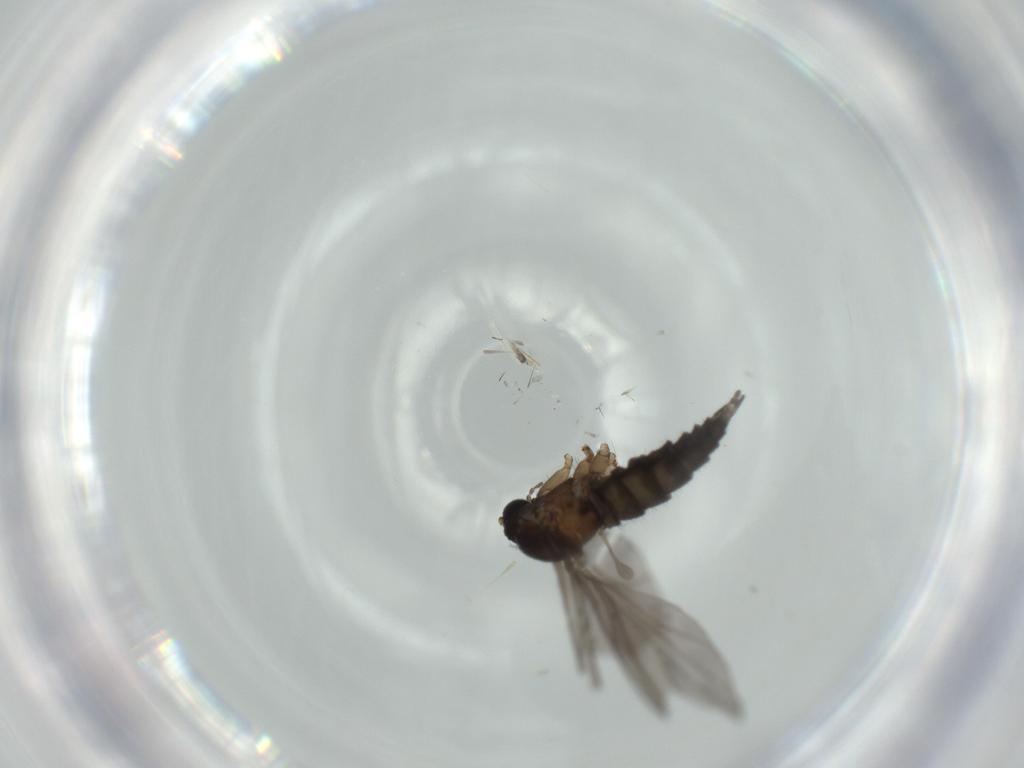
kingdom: Animalia
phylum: Arthropoda
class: Insecta
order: Diptera
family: Sciaridae
